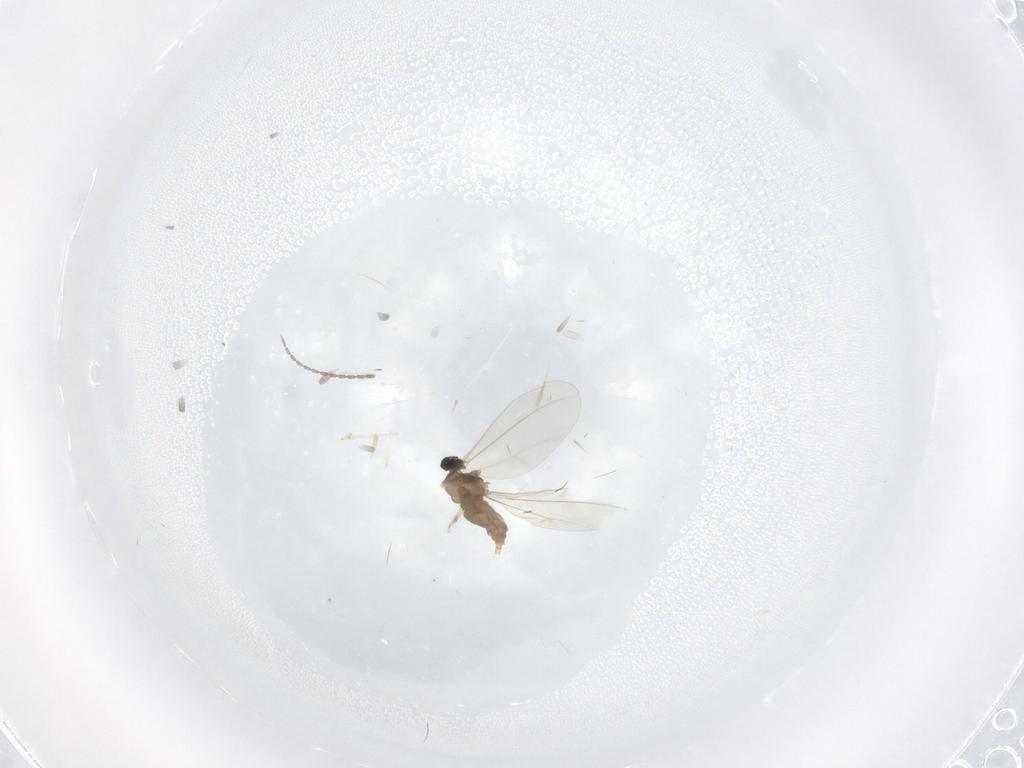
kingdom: Animalia
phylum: Arthropoda
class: Insecta
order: Diptera
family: Cecidomyiidae
